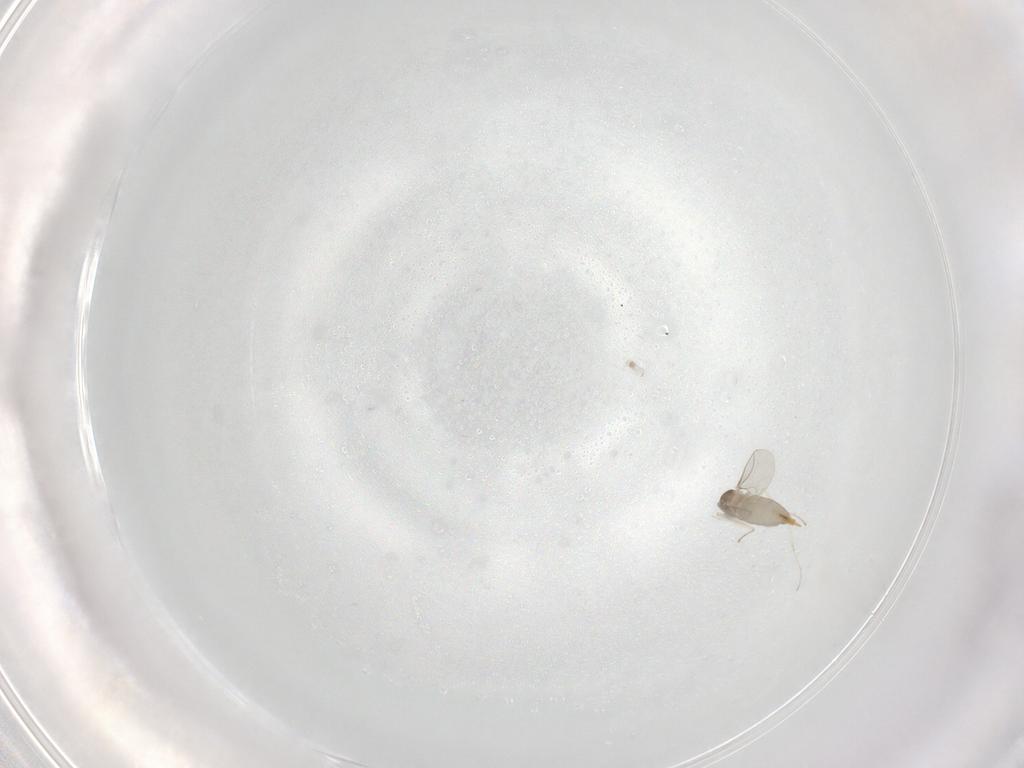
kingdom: Animalia
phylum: Arthropoda
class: Insecta
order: Diptera
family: Cecidomyiidae
